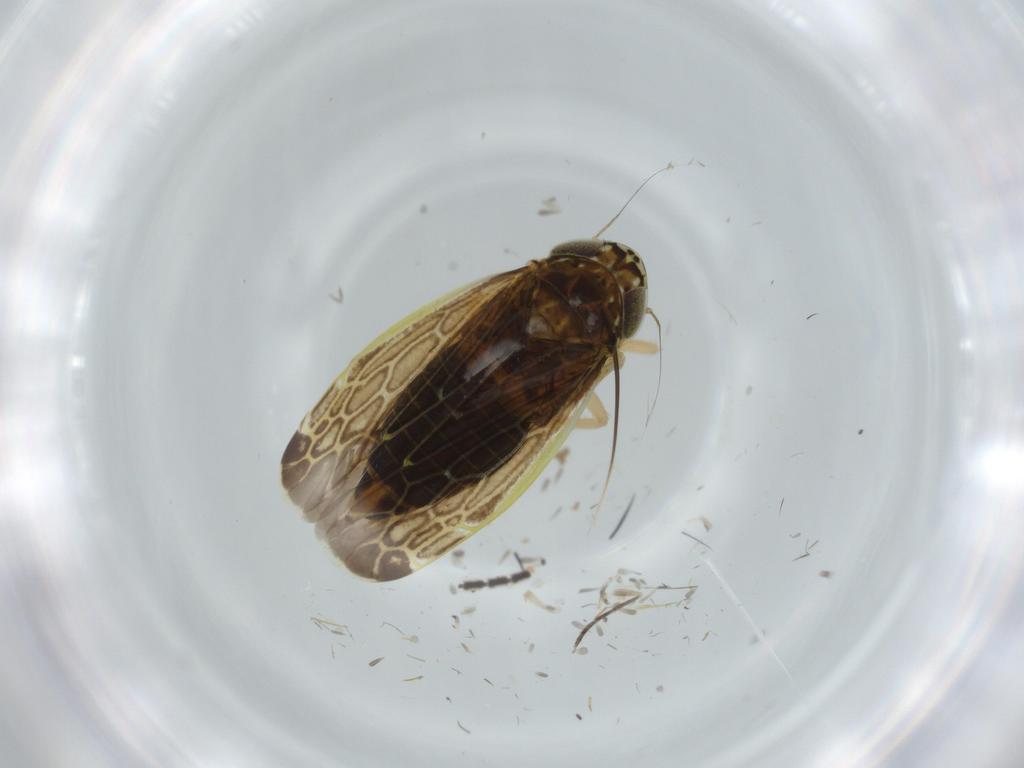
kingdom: Animalia
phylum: Arthropoda
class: Insecta
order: Hemiptera
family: Cicadellidae
